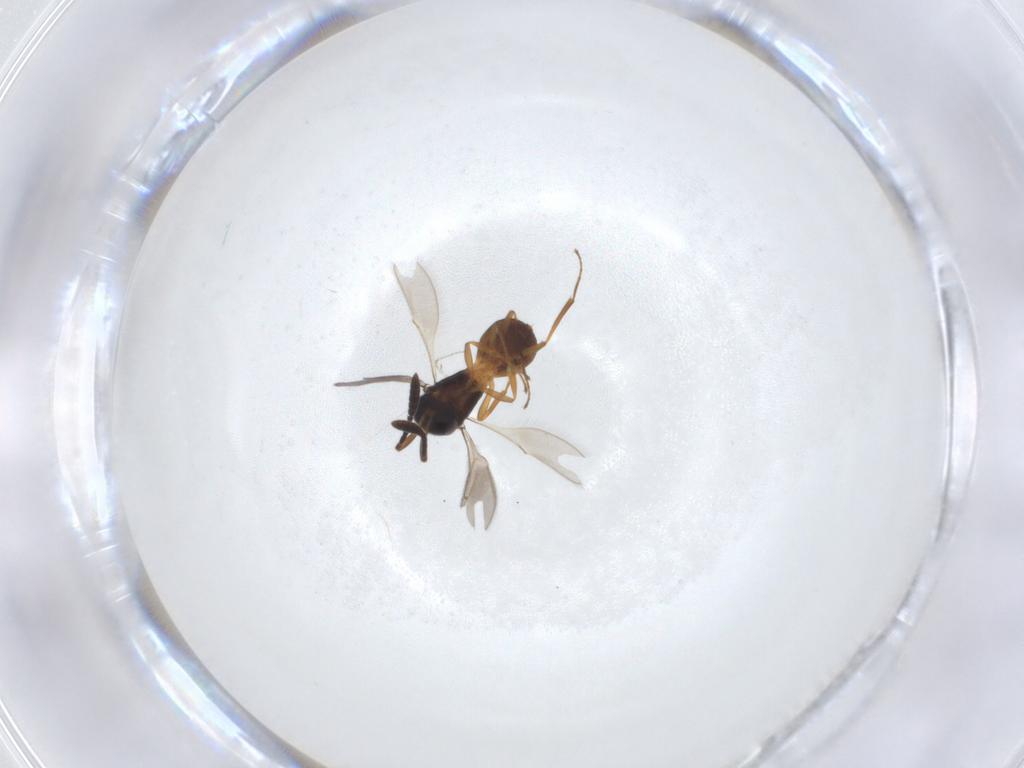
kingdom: Animalia
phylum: Arthropoda
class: Insecta
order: Hymenoptera
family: Scelionidae
